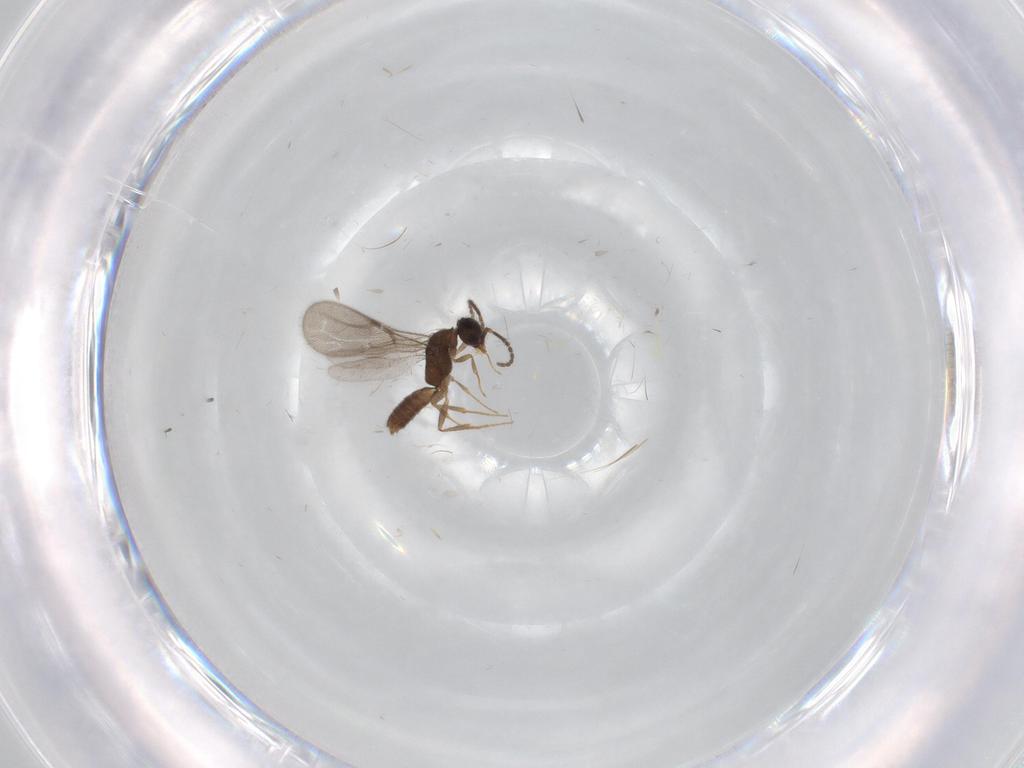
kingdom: Animalia
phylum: Arthropoda
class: Insecta
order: Hymenoptera
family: Bethylidae
